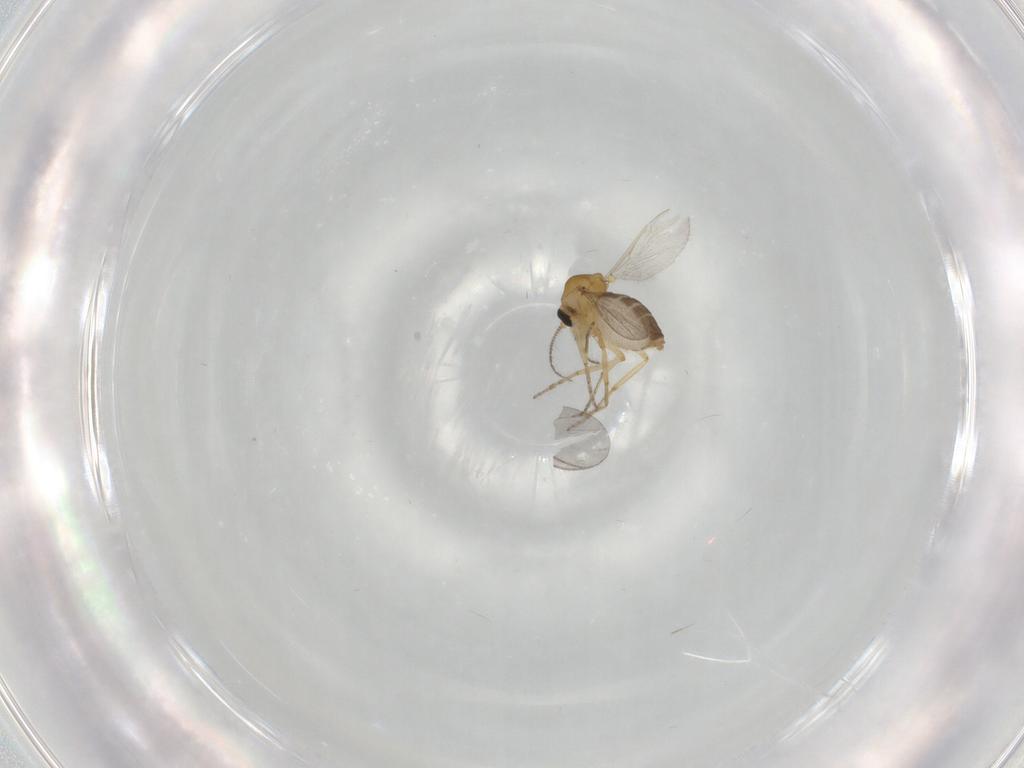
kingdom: Animalia
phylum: Arthropoda
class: Insecta
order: Diptera
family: Ceratopogonidae
